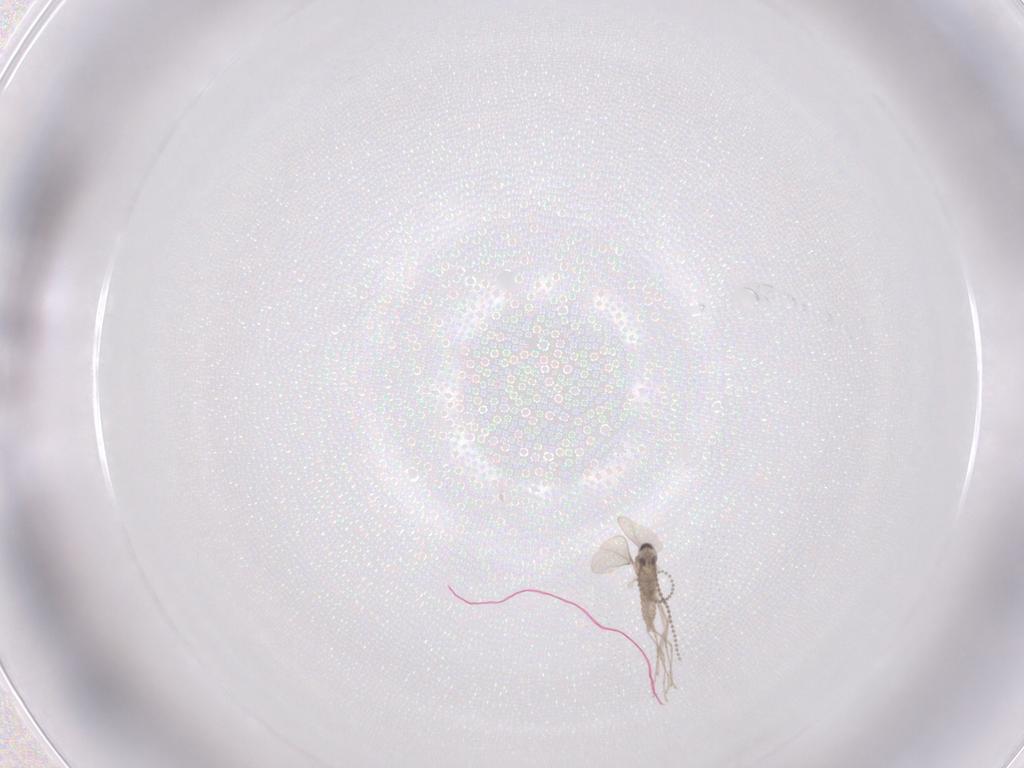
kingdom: Animalia
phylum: Arthropoda
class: Insecta
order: Diptera
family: Cecidomyiidae
